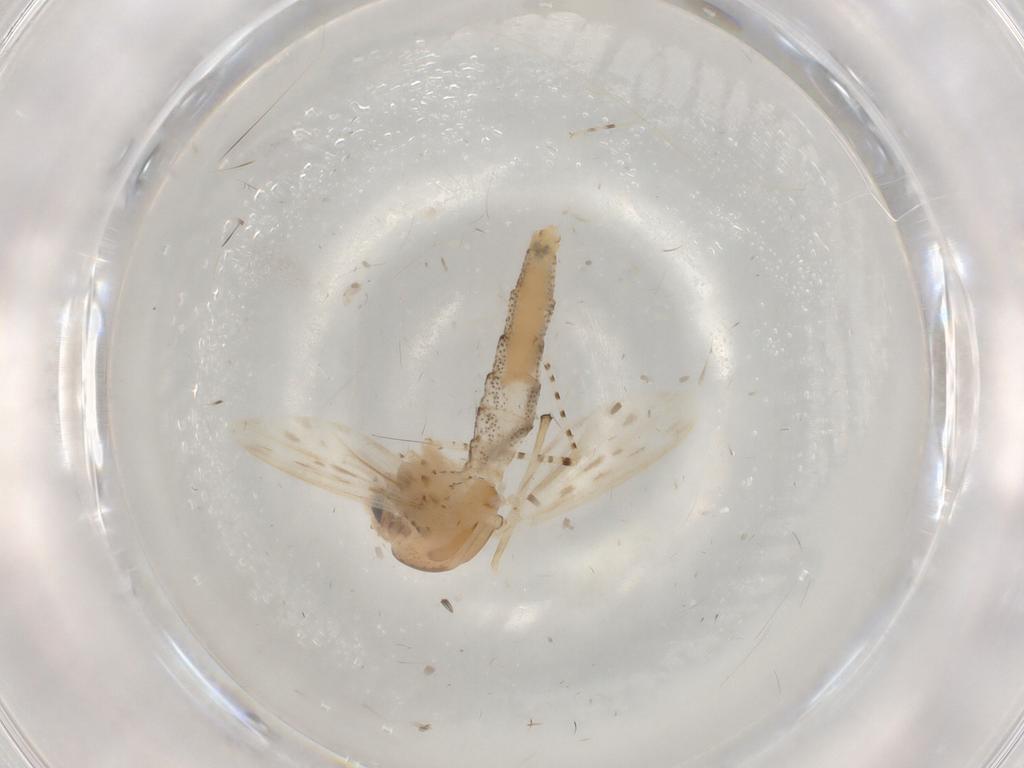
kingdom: Animalia
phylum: Arthropoda
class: Insecta
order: Diptera
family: Chaoboridae
